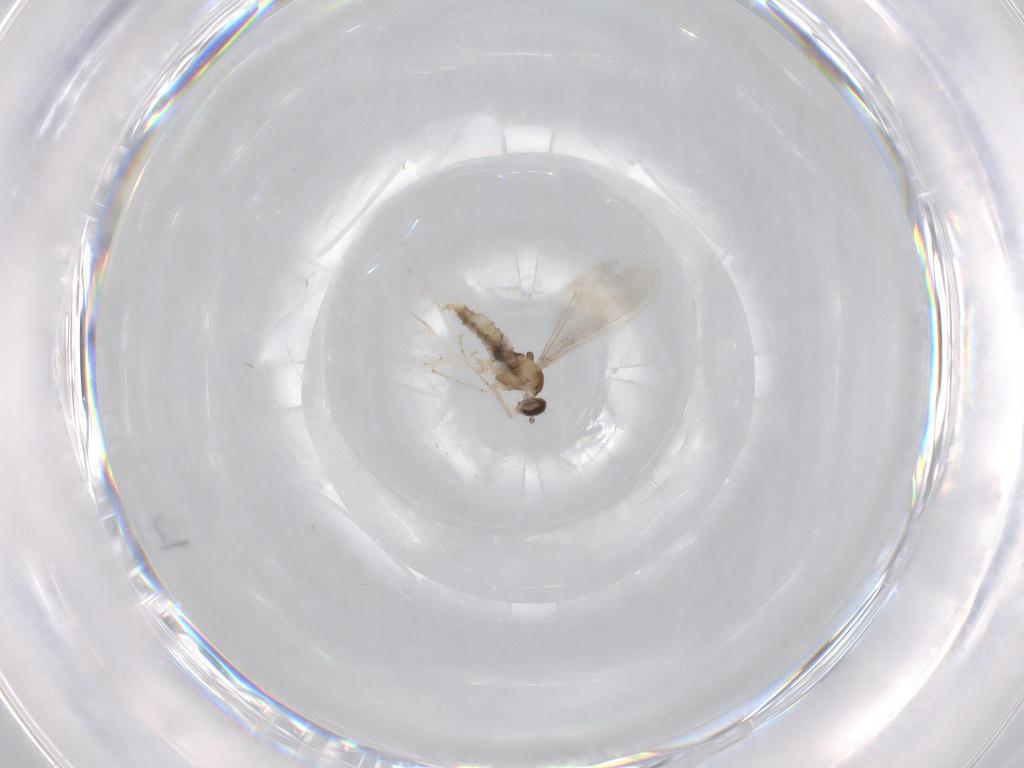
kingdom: Animalia
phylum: Arthropoda
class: Insecta
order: Diptera
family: Cecidomyiidae
